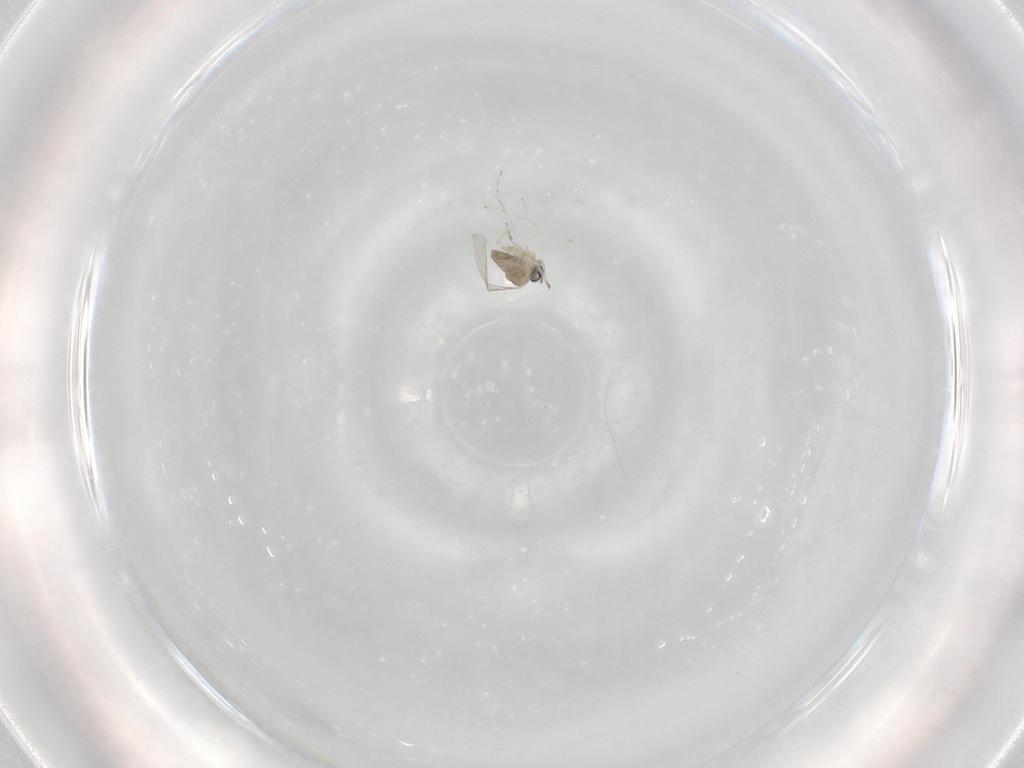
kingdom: Animalia
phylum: Arthropoda
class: Insecta
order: Diptera
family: Cecidomyiidae
